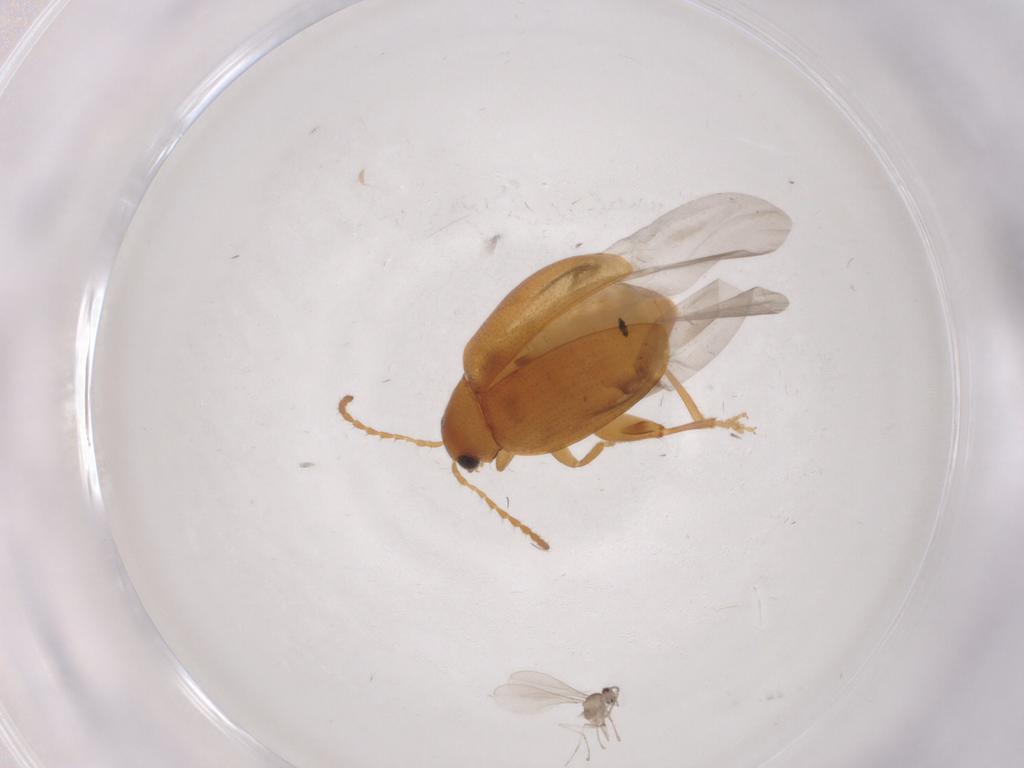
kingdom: Animalia
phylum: Arthropoda
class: Insecta
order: Coleoptera
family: Chrysomelidae
